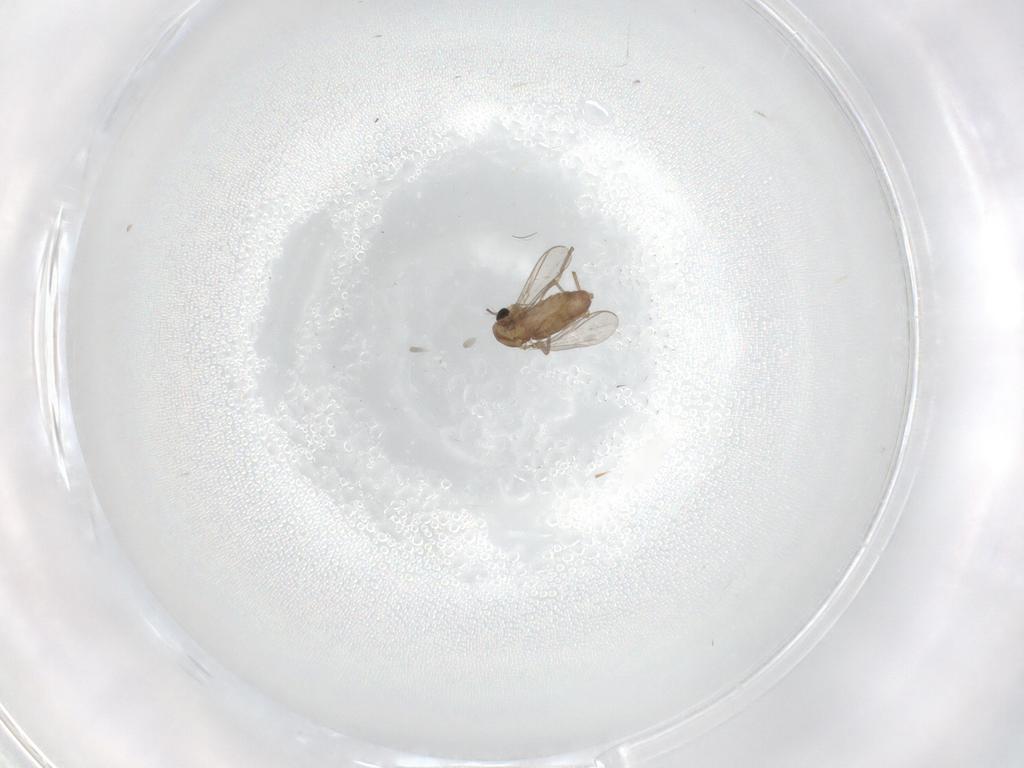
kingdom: Animalia
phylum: Arthropoda
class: Insecta
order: Diptera
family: Chironomidae
